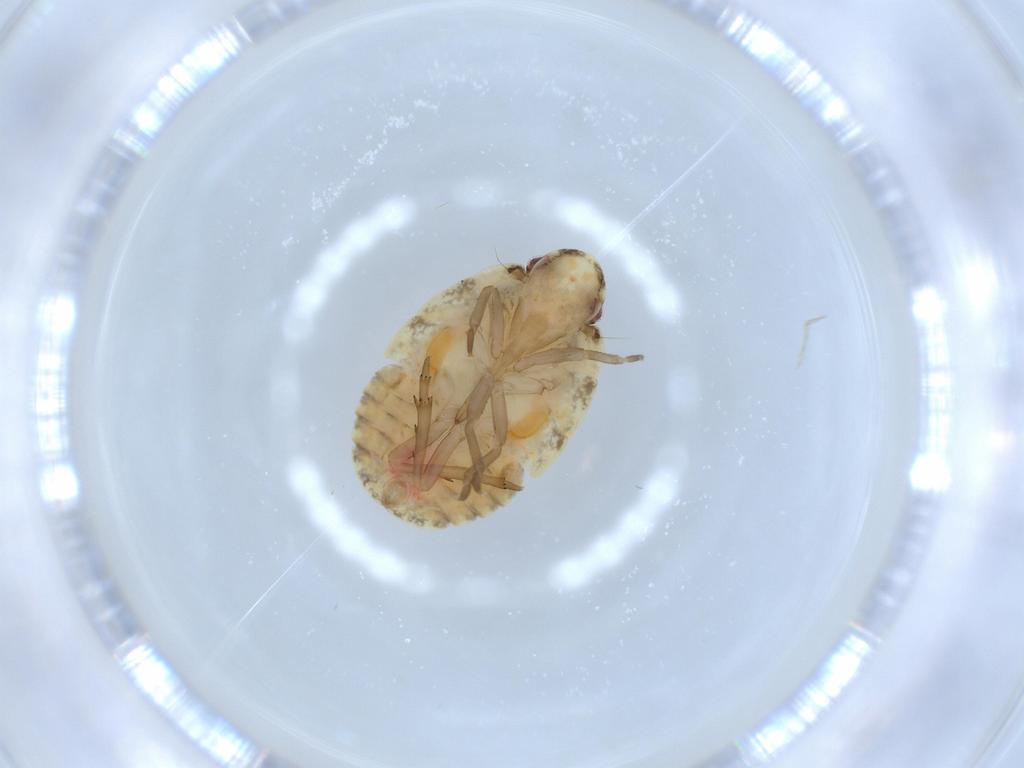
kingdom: Animalia
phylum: Arthropoda
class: Insecta
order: Hemiptera
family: Flatidae
